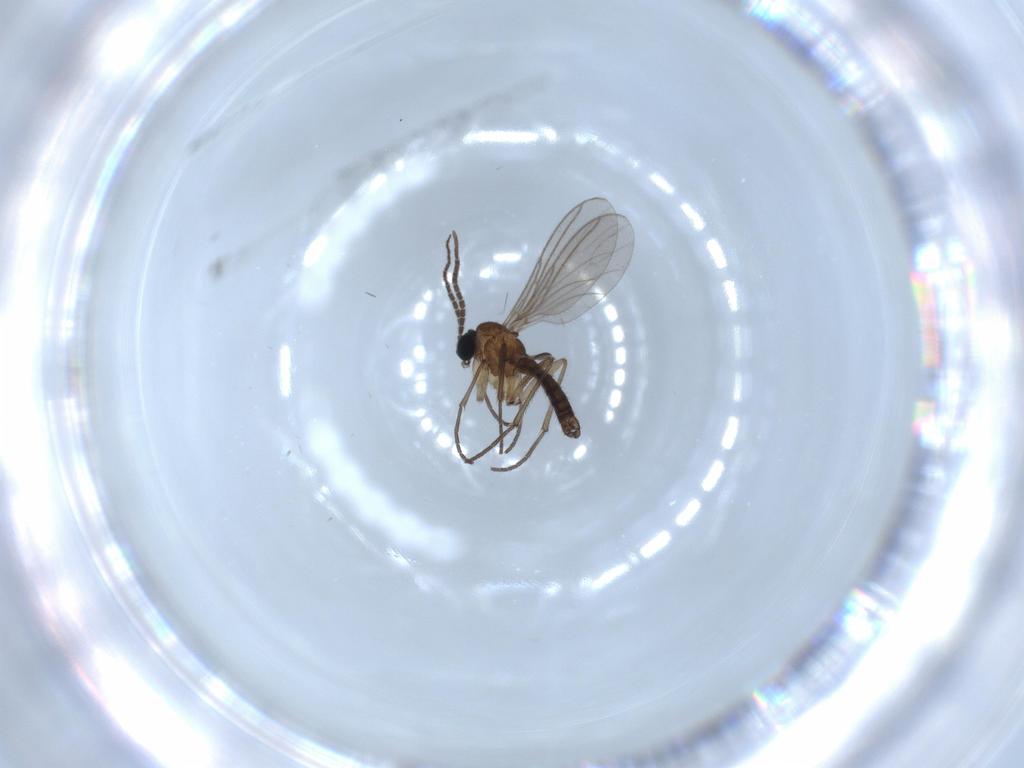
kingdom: Animalia
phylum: Arthropoda
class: Insecta
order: Diptera
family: Sciaridae
